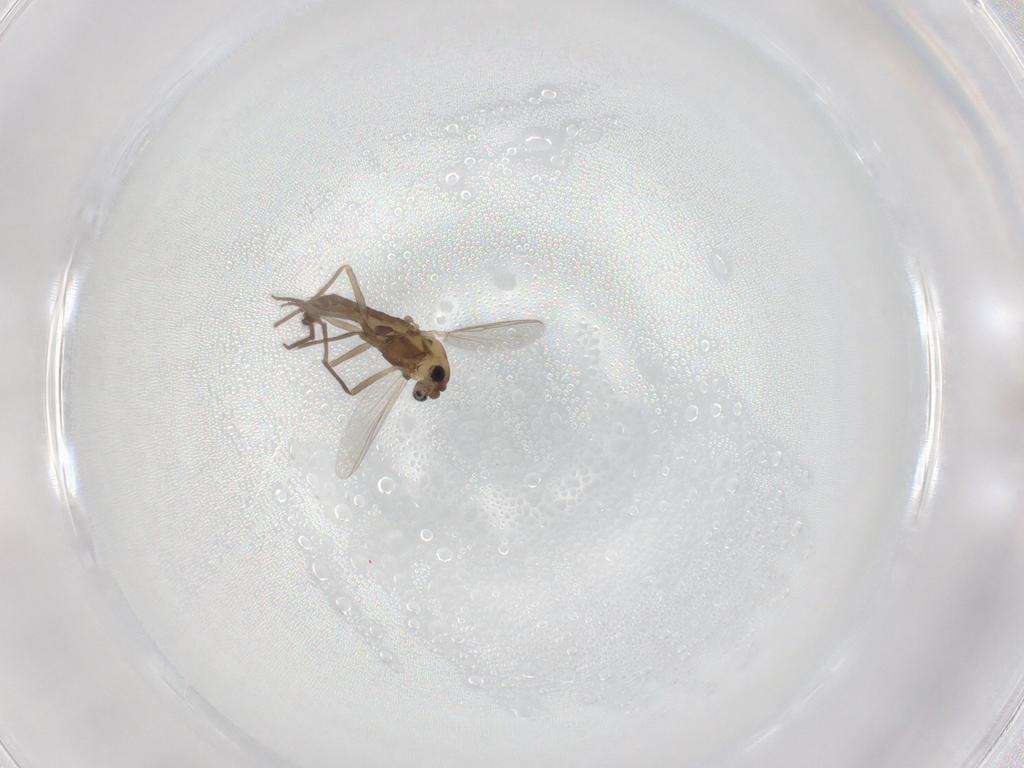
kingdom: Animalia
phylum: Arthropoda
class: Insecta
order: Diptera
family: Chironomidae
